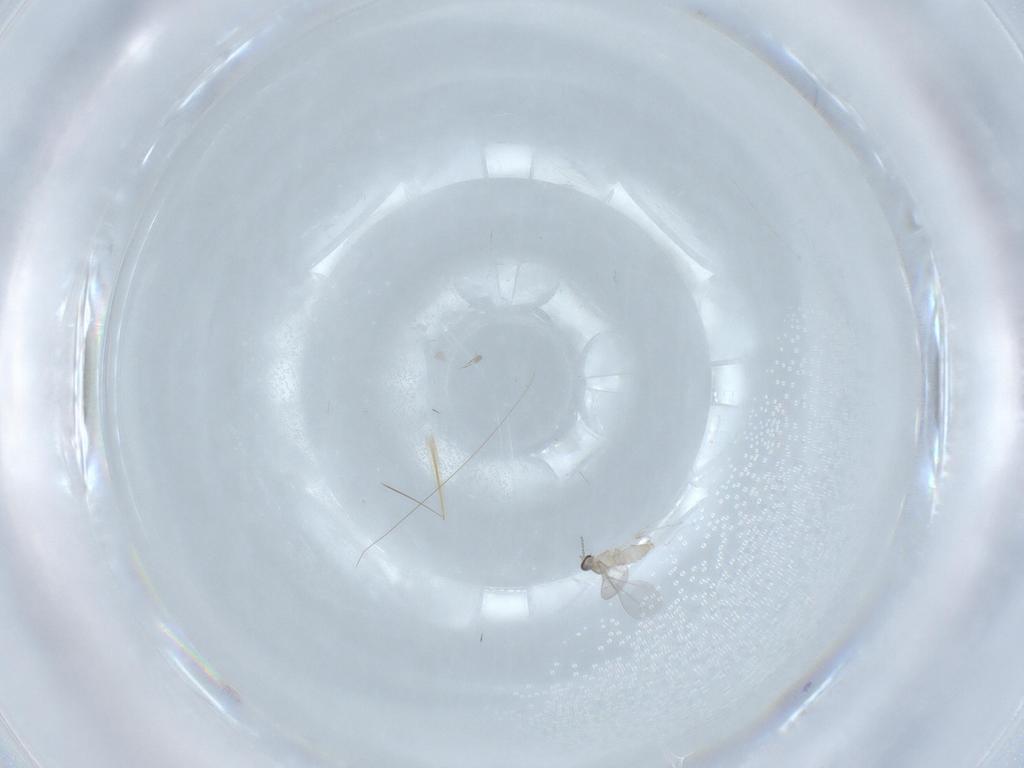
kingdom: Animalia
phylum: Arthropoda
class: Insecta
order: Diptera
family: Cecidomyiidae
